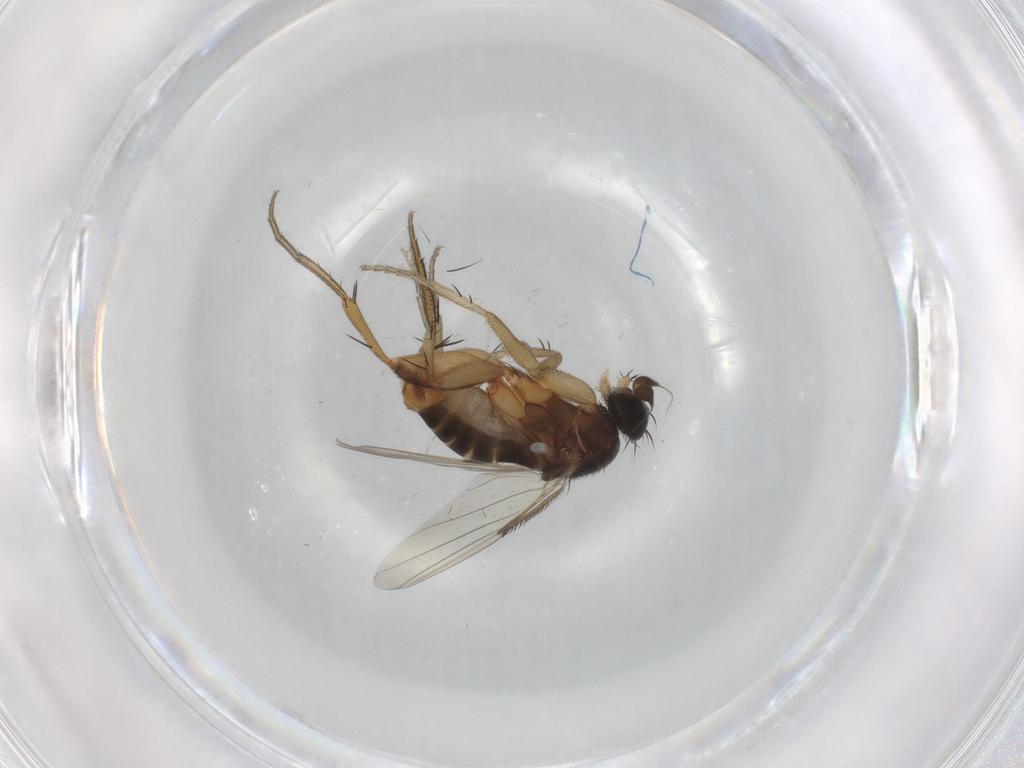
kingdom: Animalia
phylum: Arthropoda
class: Insecta
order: Diptera
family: Phoridae
